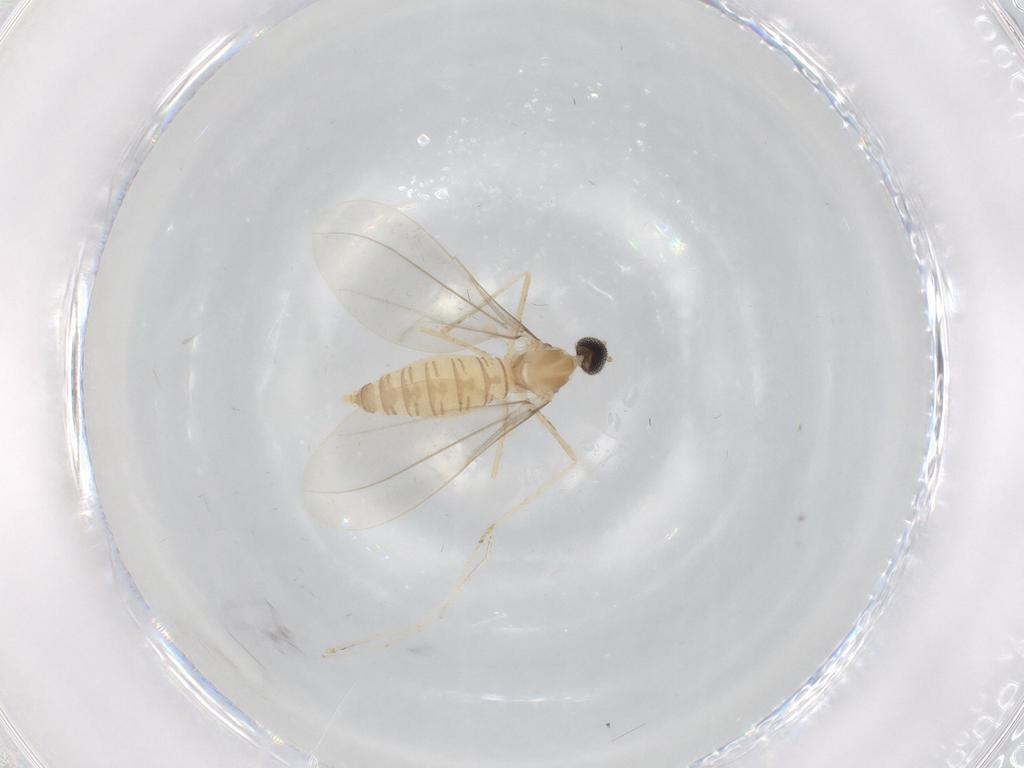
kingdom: Animalia
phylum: Arthropoda
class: Insecta
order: Diptera
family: Cecidomyiidae
